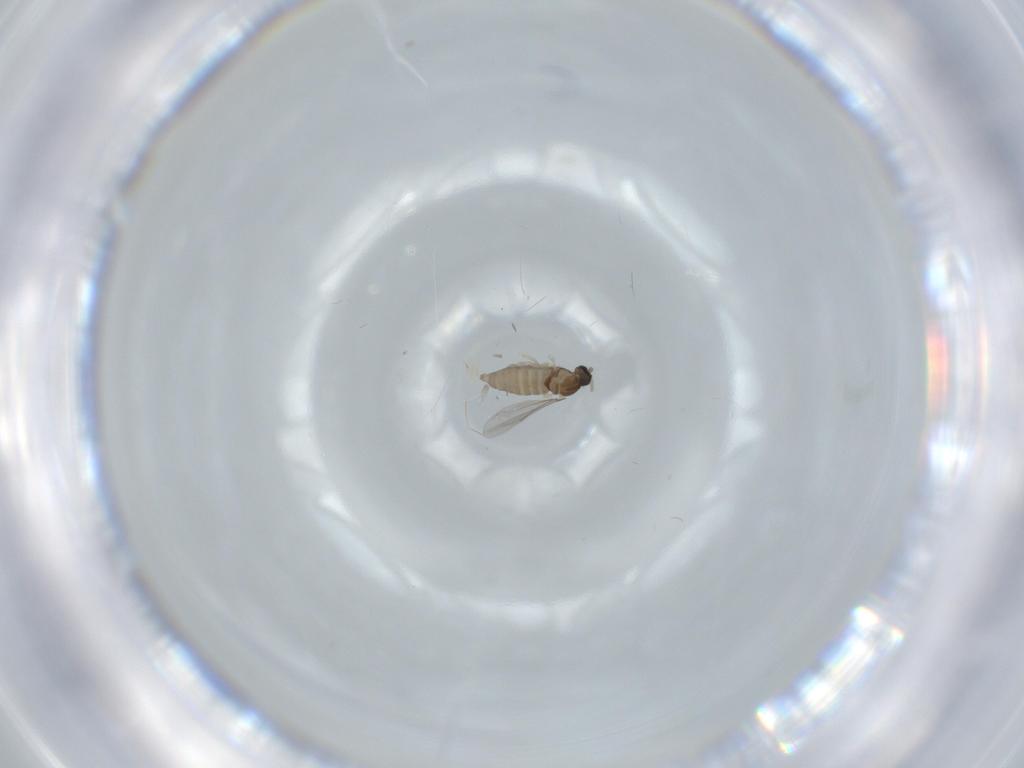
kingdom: Animalia
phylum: Arthropoda
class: Insecta
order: Diptera
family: Cecidomyiidae
